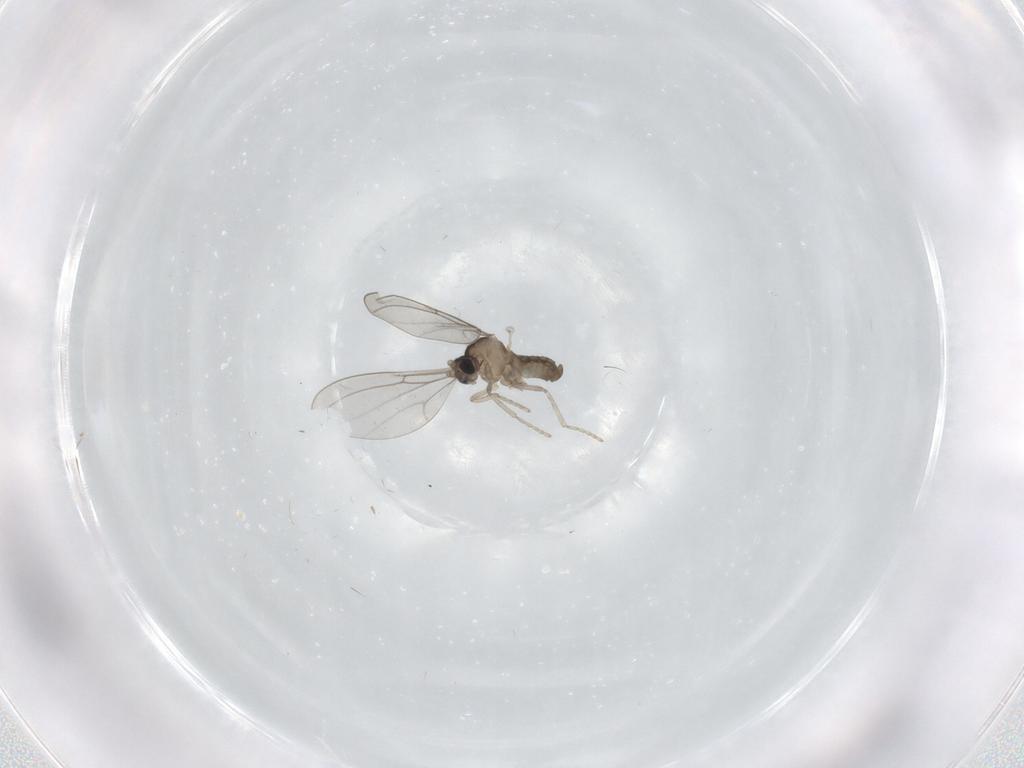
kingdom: Animalia
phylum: Arthropoda
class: Insecta
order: Diptera
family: Cecidomyiidae
